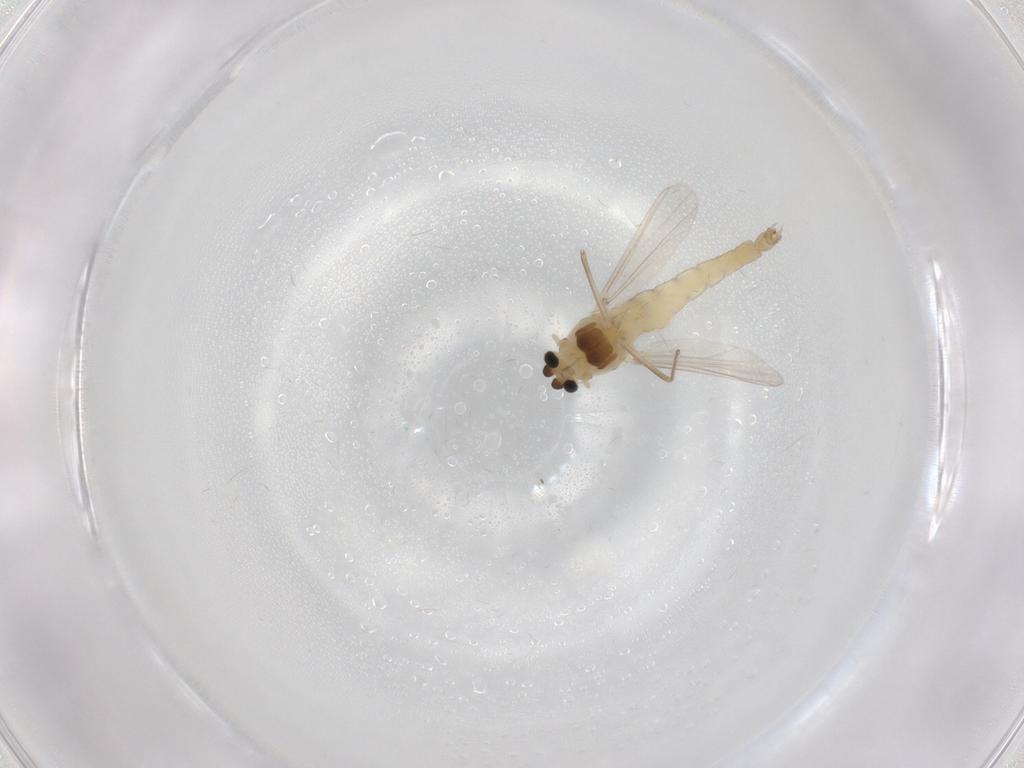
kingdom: Animalia
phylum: Arthropoda
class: Insecta
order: Diptera
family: Chironomidae
